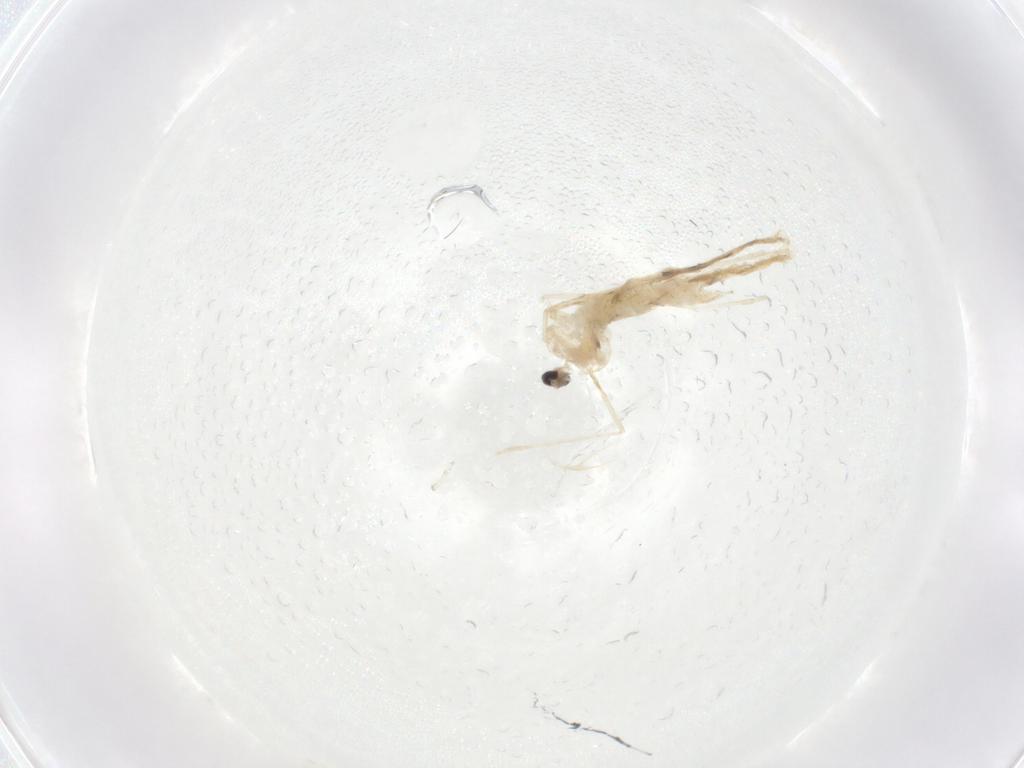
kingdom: Animalia
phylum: Arthropoda
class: Insecta
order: Diptera
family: Cecidomyiidae
